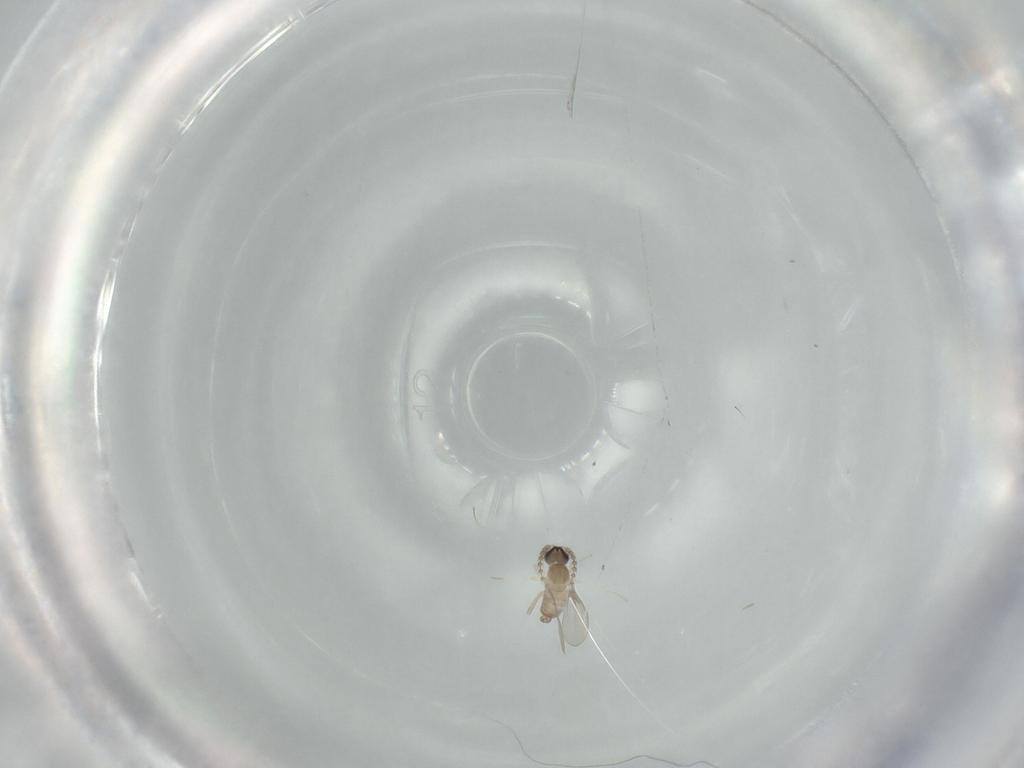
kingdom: Animalia
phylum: Arthropoda
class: Insecta
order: Diptera
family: Cecidomyiidae
